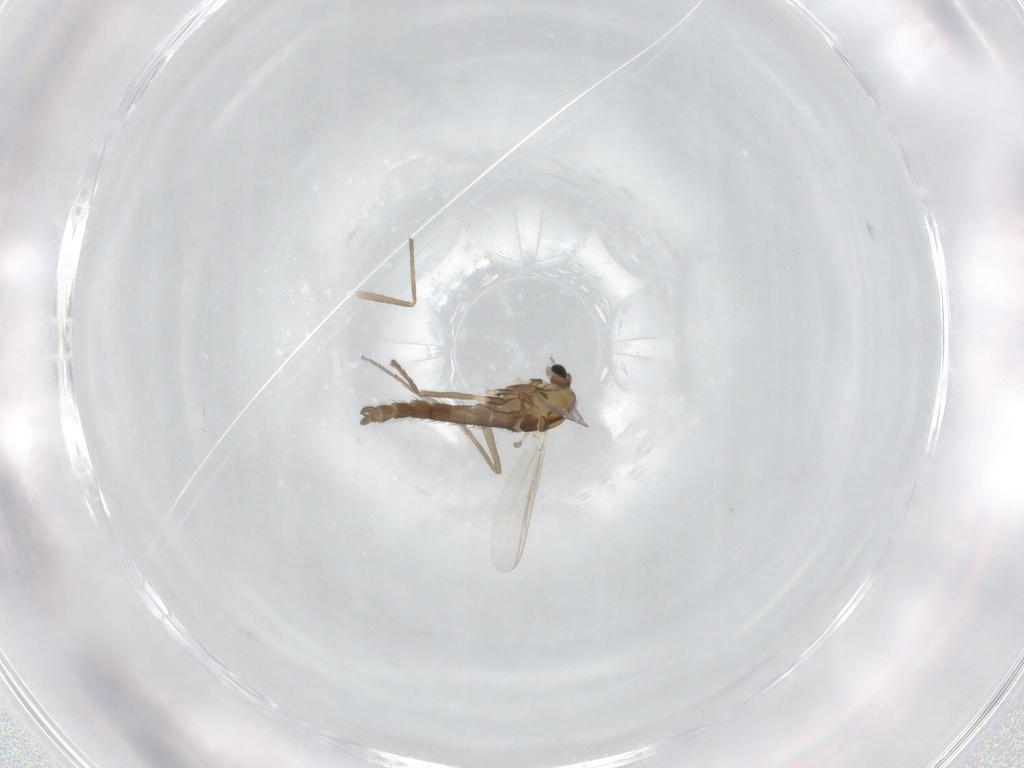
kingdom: Animalia
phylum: Arthropoda
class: Insecta
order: Diptera
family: Chironomidae
